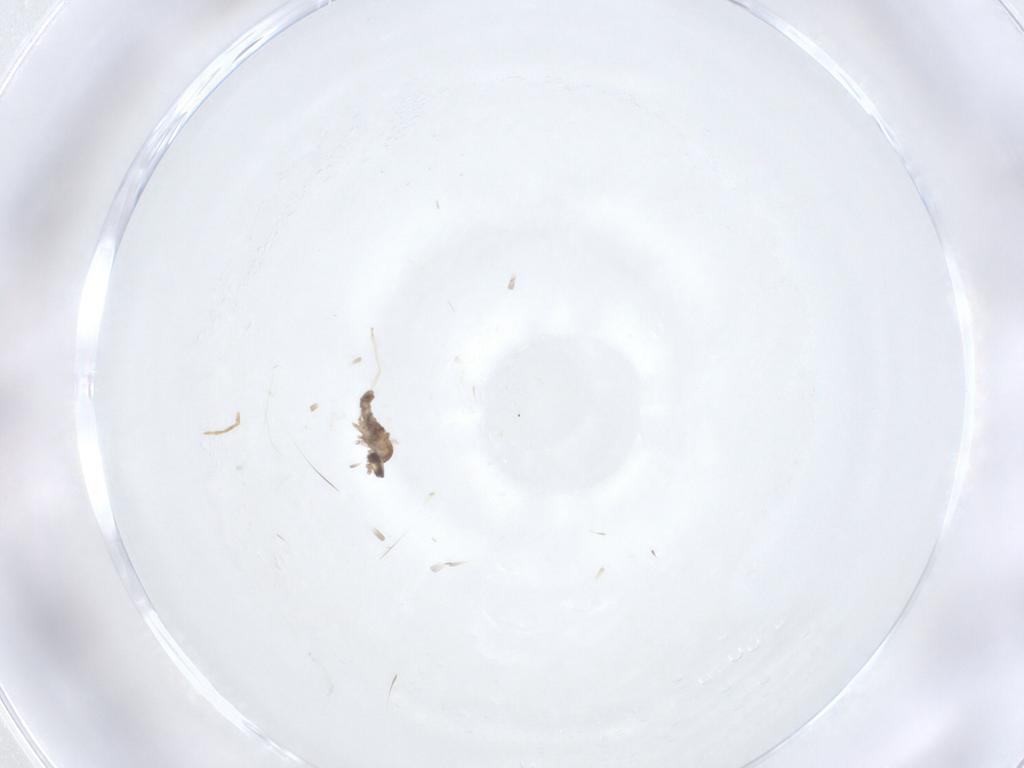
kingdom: Animalia
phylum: Arthropoda
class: Insecta
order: Diptera
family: Cecidomyiidae
